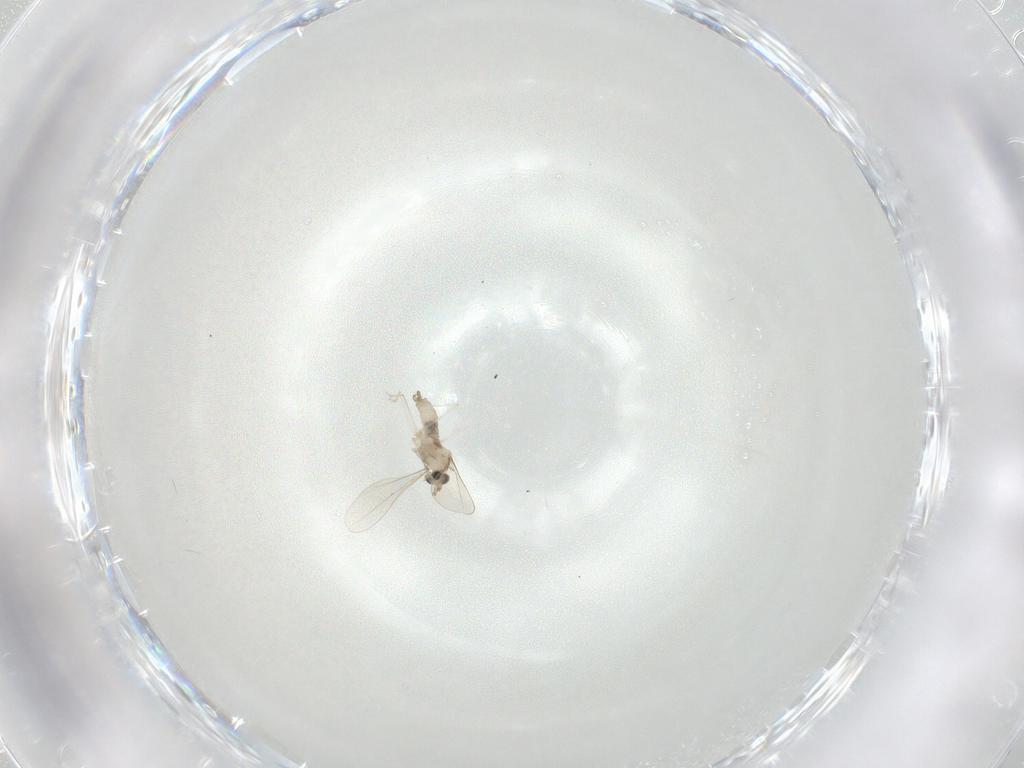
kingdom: Animalia
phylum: Arthropoda
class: Insecta
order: Diptera
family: Cecidomyiidae
